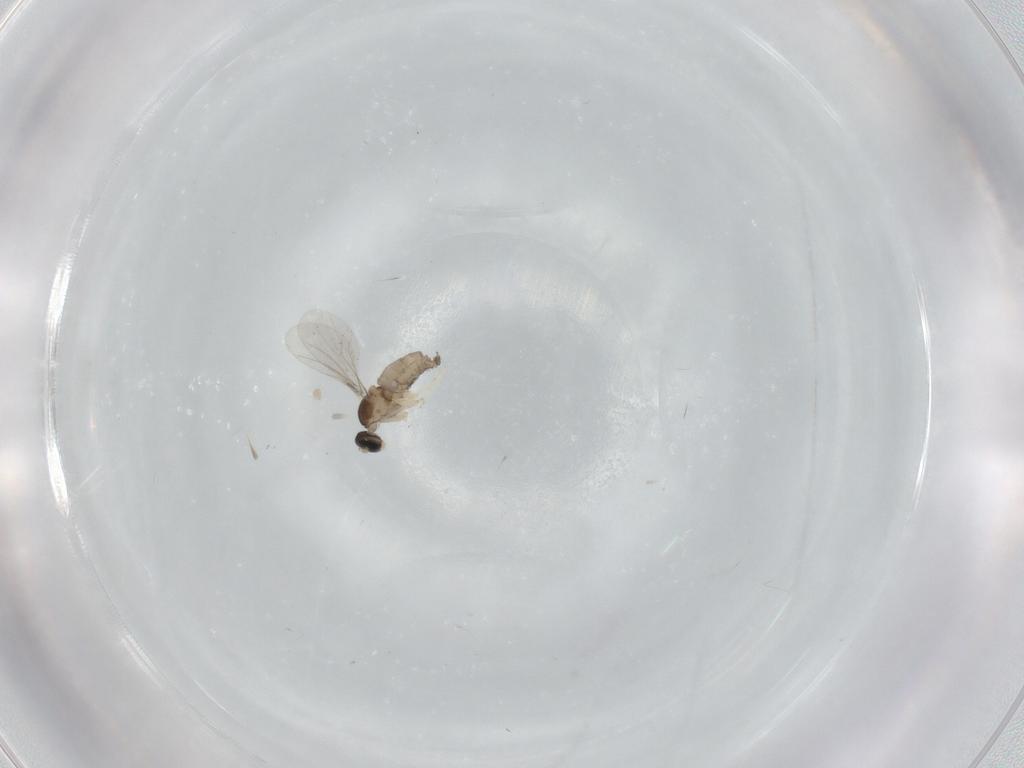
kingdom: Animalia
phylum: Arthropoda
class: Insecta
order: Diptera
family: Cecidomyiidae
